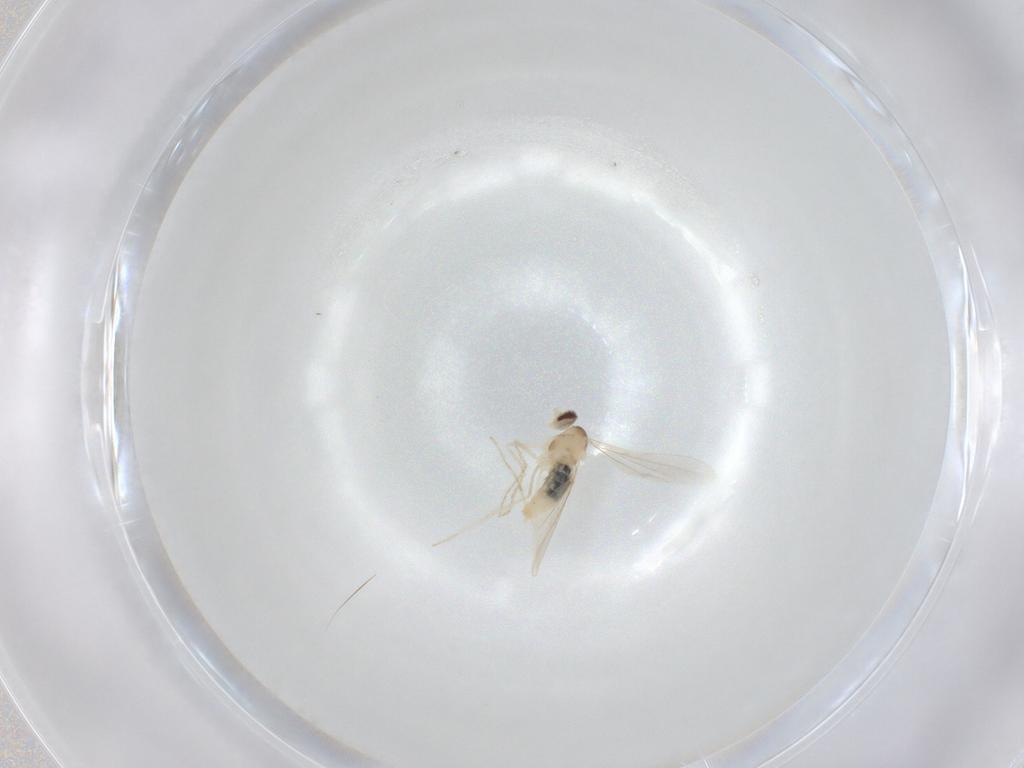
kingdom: Animalia
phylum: Arthropoda
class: Insecta
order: Diptera
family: Cecidomyiidae
